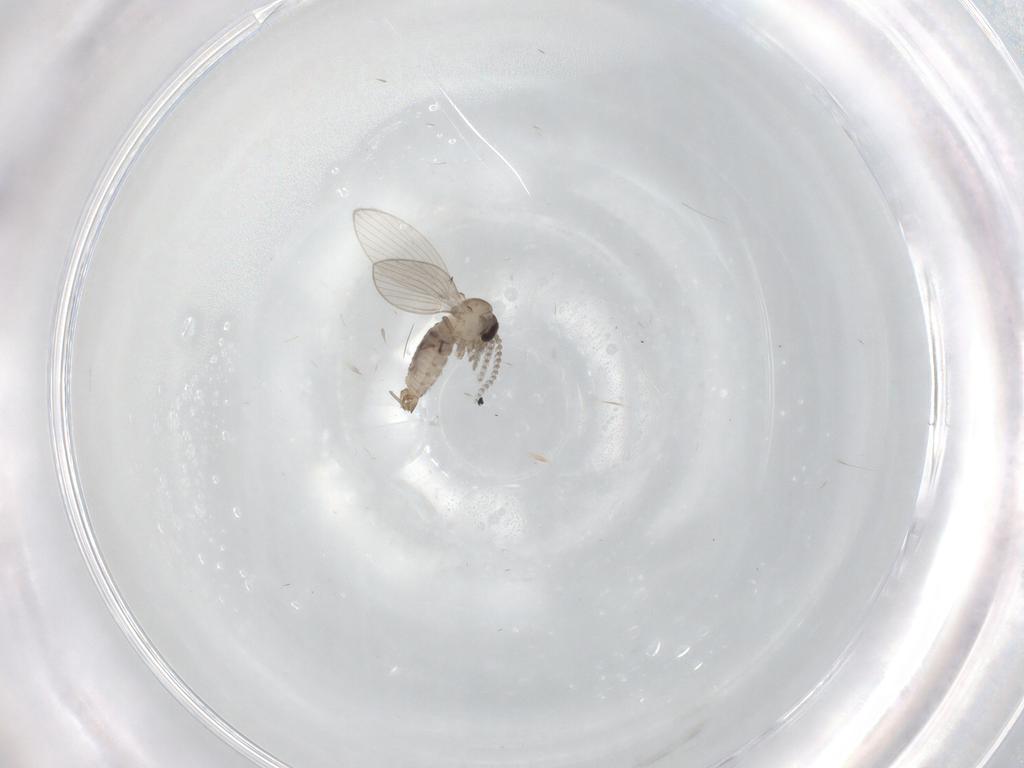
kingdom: Animalia
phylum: Arthropoda
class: Insecta
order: Diptera
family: Psychodidae
